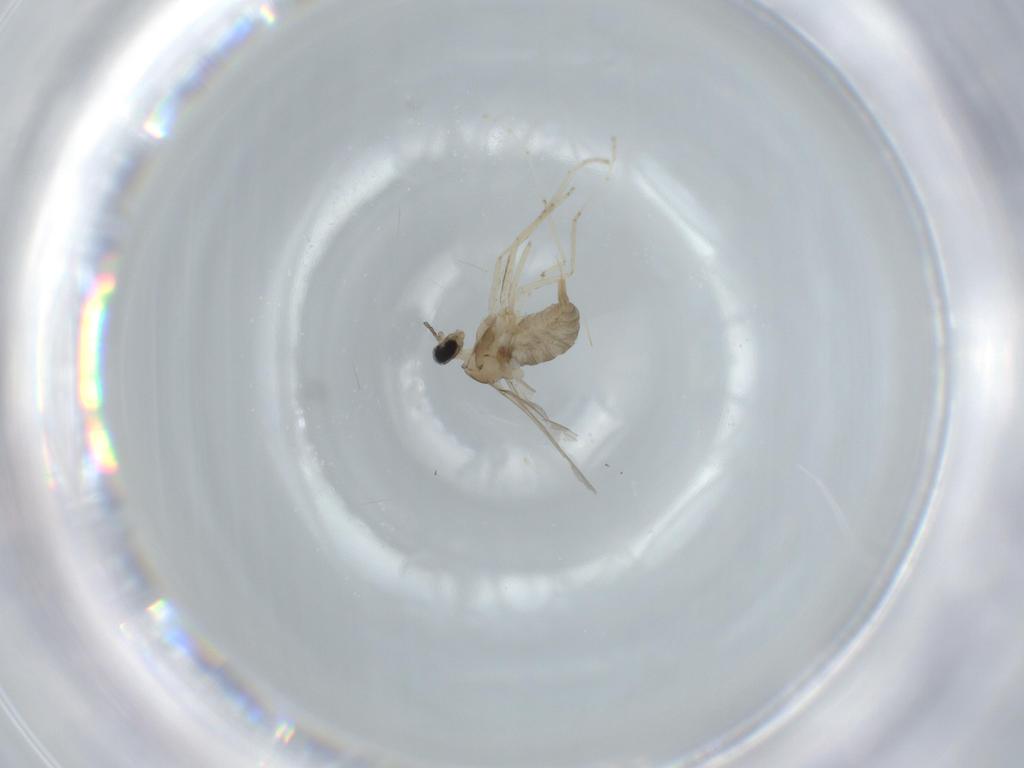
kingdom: Animalia
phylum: Arthropoda
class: Insecta
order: Diptera
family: Cecidomyiidae
